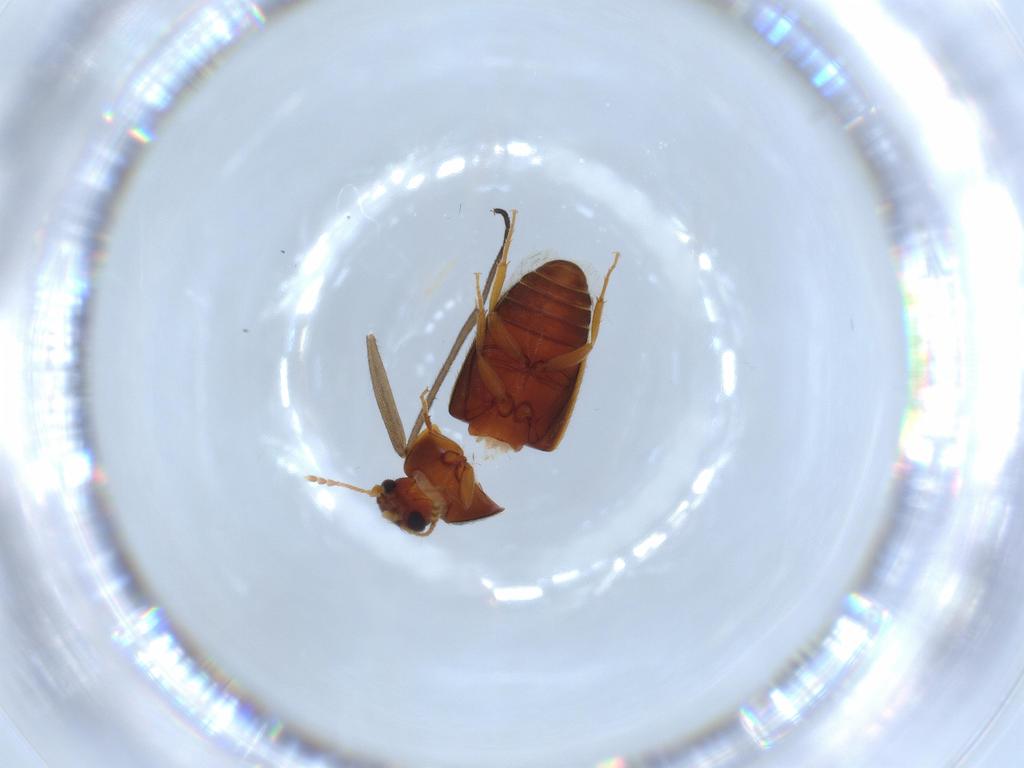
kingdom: Animalia
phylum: Arthropoda
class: Insecta
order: Coleoptera
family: Mycetophagidae
